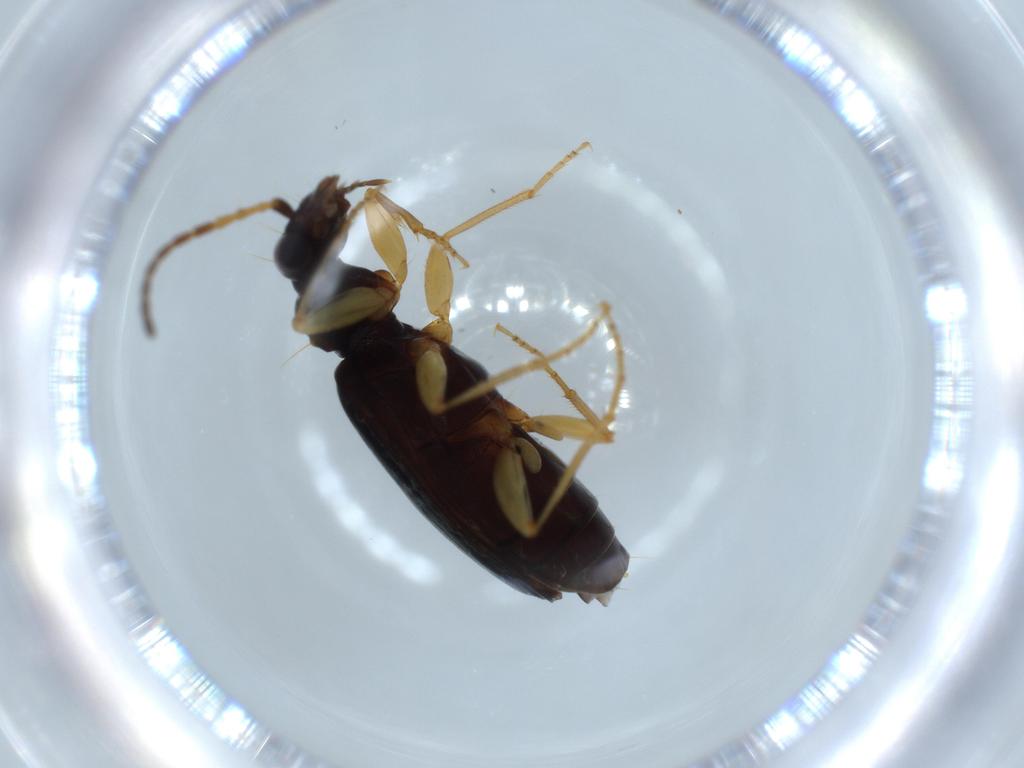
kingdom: Animalia
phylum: Arthropoda
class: Insecta
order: Coleoptera
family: Carabidae
